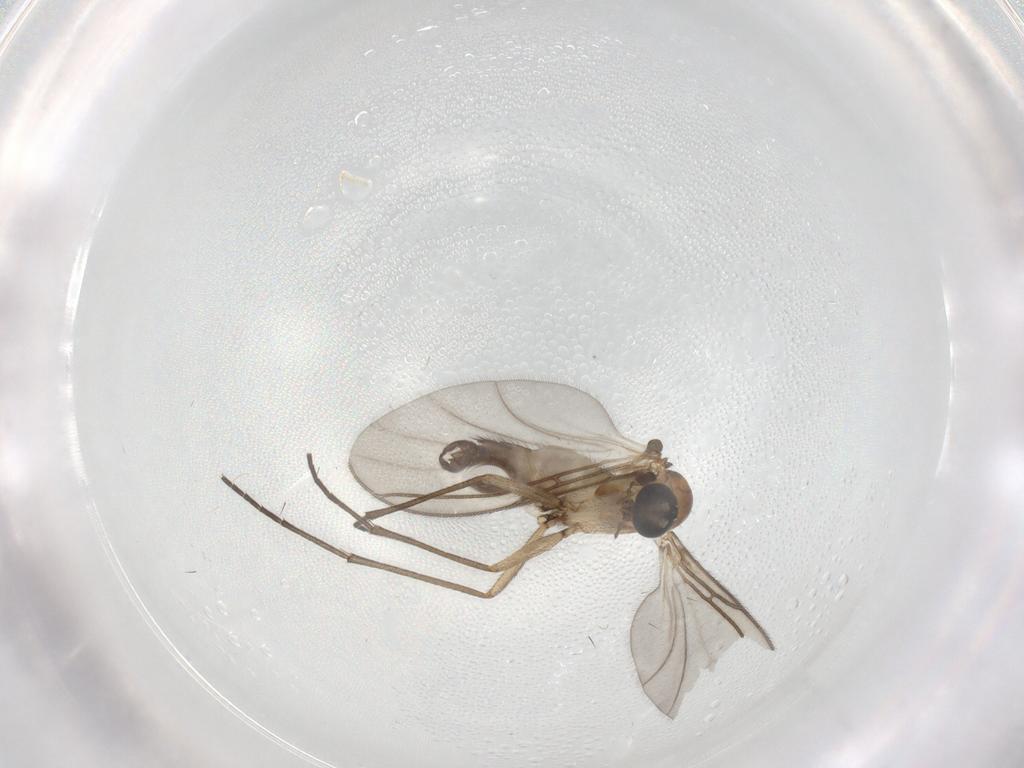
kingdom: Animalia
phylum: Arthropoda
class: Insecta
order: Diptera
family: Sciaridae
